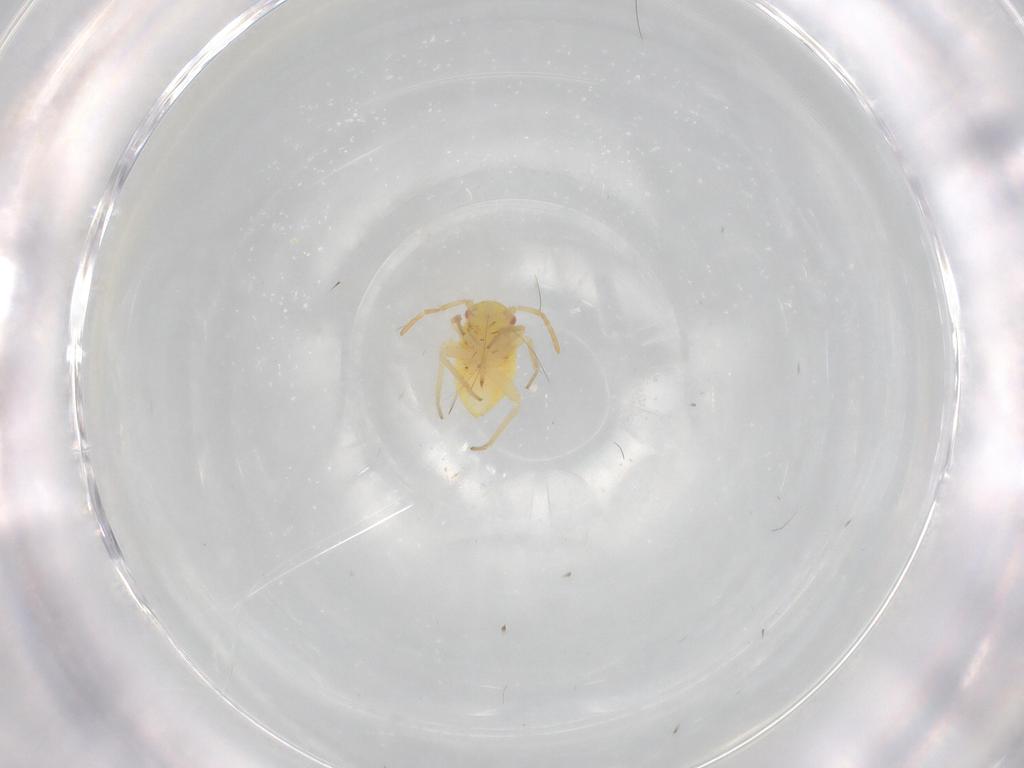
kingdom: Animalia
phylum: Arthropoda
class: Insecta
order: Hemiptera
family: Miridae
